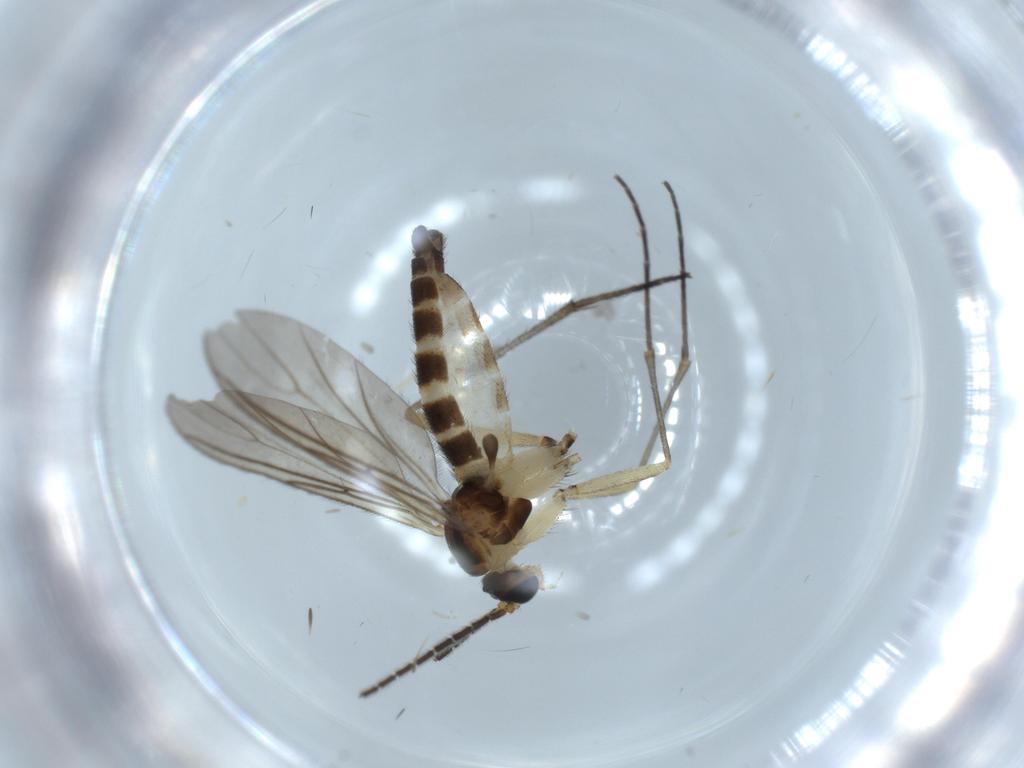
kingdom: Animalia
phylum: Arthropoda
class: Insecta
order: Diptera
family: Sciaridae
